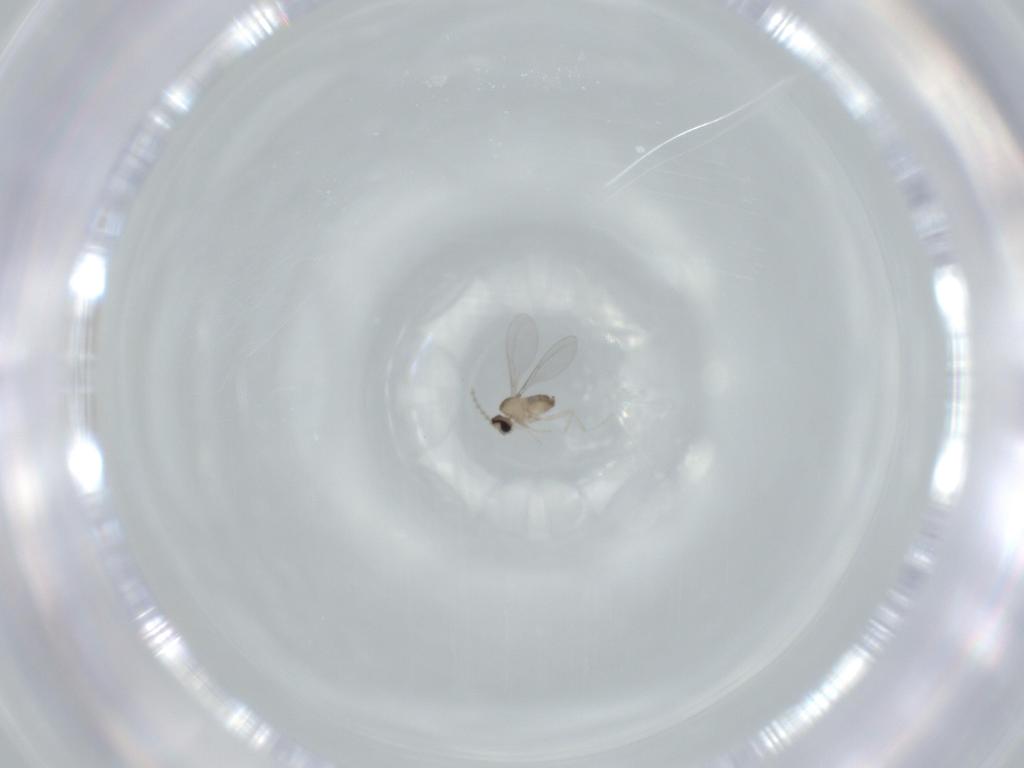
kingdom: Animalia
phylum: Arthropoda
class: Insecta
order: Diptera
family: Cecidomyiidae
